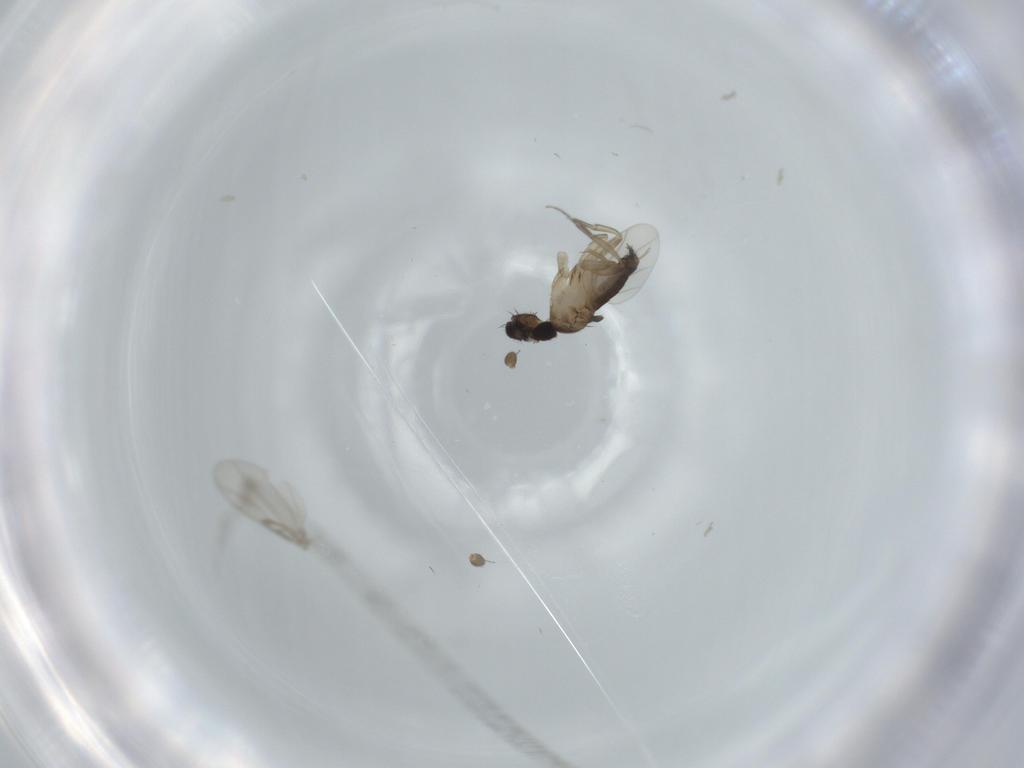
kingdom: Animalia
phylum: Arthropoda
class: Insecta
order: Diptera
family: Phoridae
